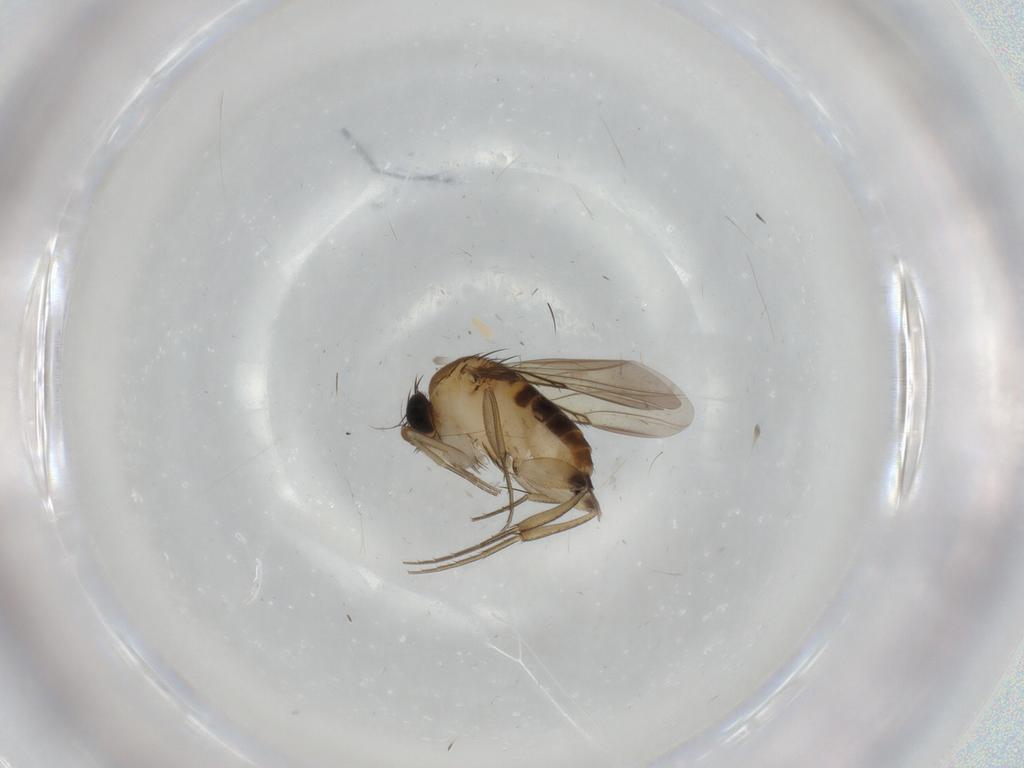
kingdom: Animalia
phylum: Arthropoda
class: Insecta
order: Diptera
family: Phoridae
